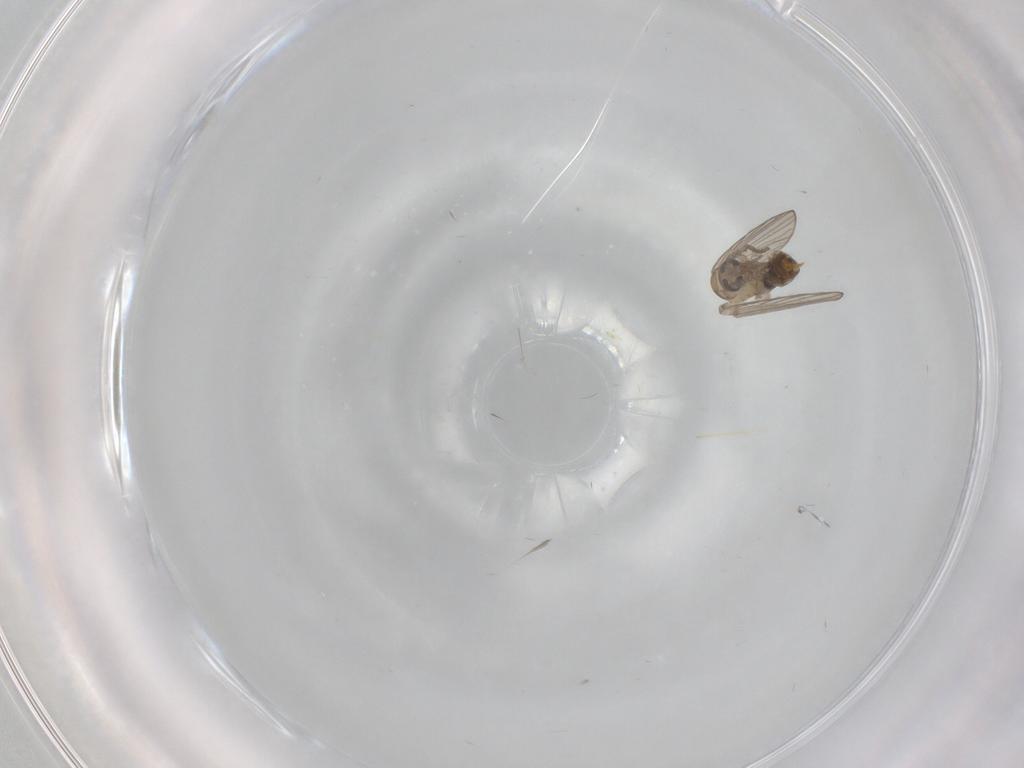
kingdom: Animalia
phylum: Arthropoda
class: Insecta
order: Diptera
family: Psychodidae
